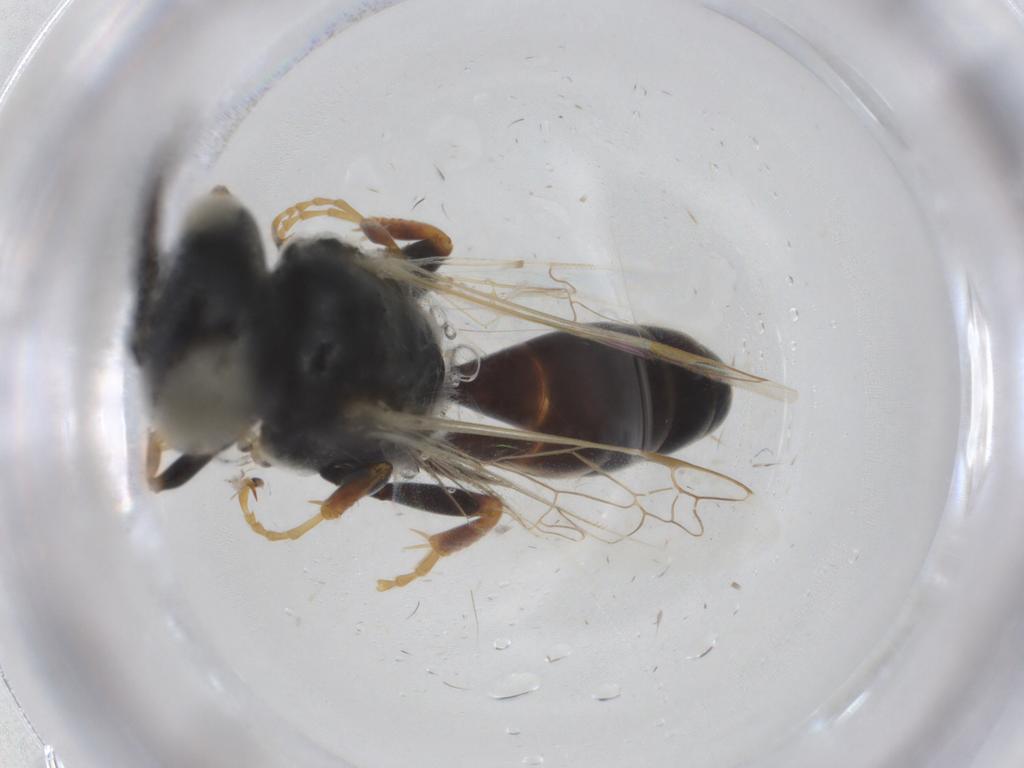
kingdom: Animalia
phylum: Arthropoda
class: Insecta
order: Hymenoptera
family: Crabronidae
